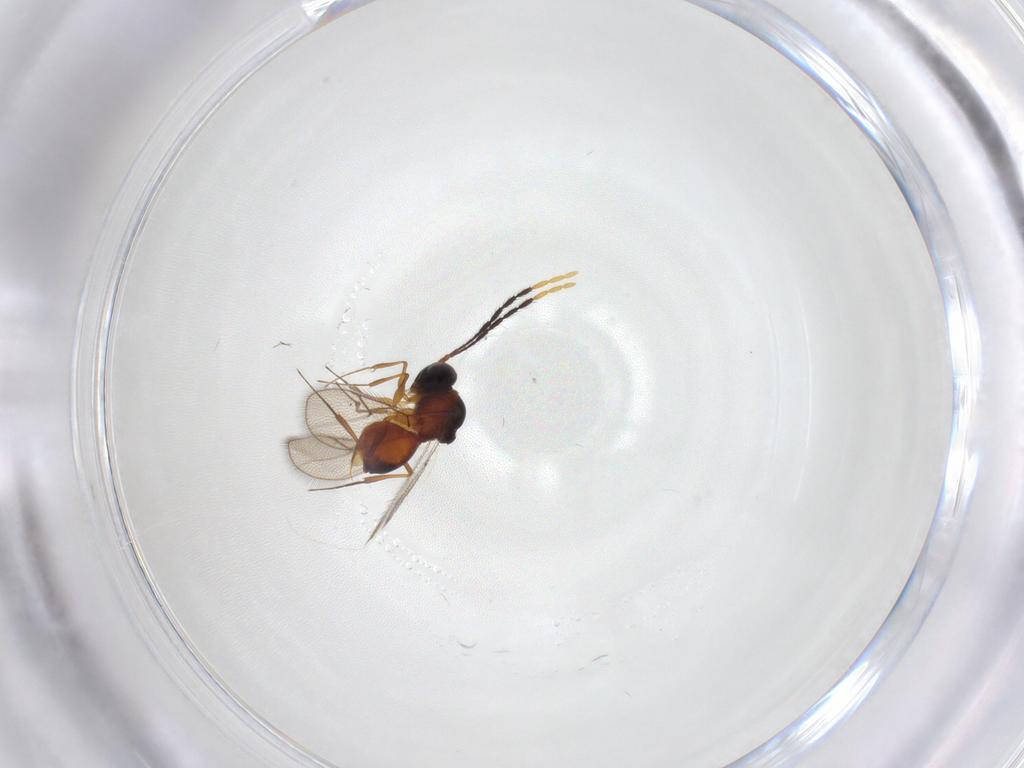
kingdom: Animalia
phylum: Arthropoda
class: Insecta
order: Hymenoptera
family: Figitidae
